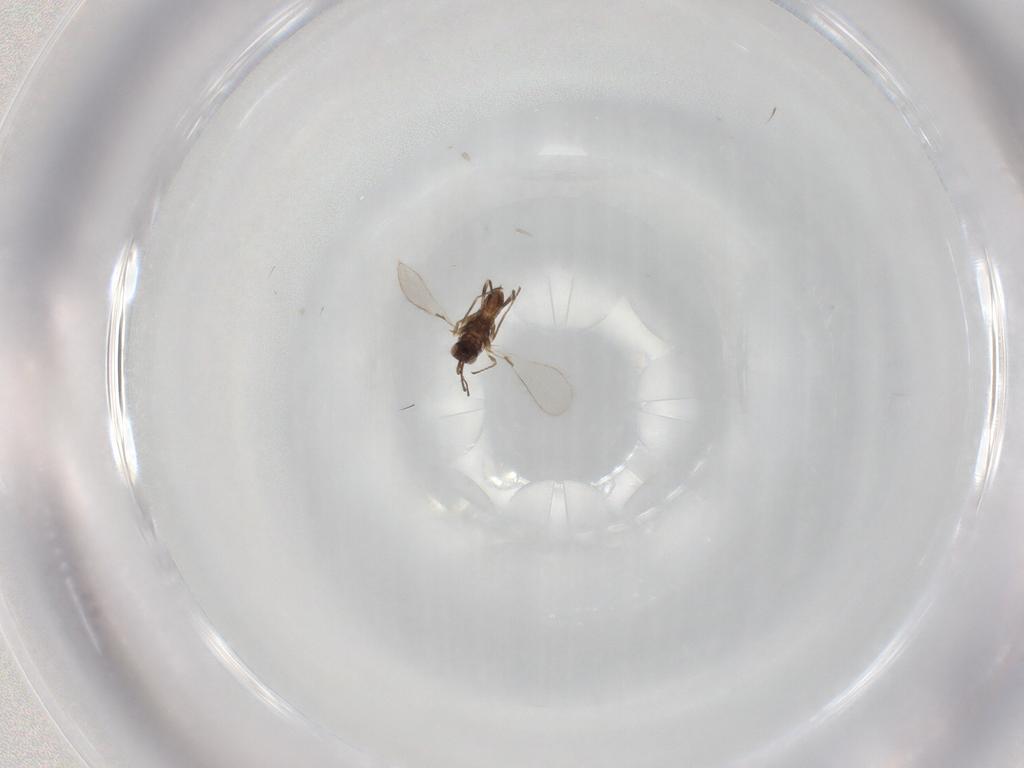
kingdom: Animalia
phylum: Arthropoda
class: Insecta
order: Hymenoptera
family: Mymaridae
